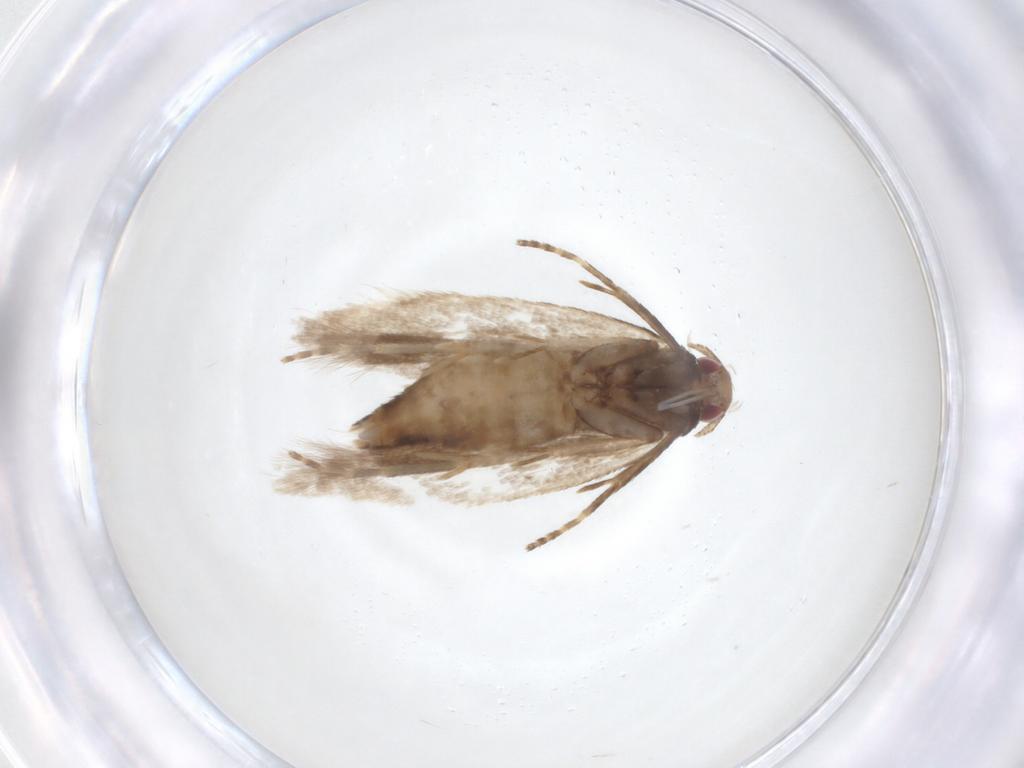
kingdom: Animalia
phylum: Arthropoda
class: Insecta
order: Lepidoptera
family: Gelechiidae
